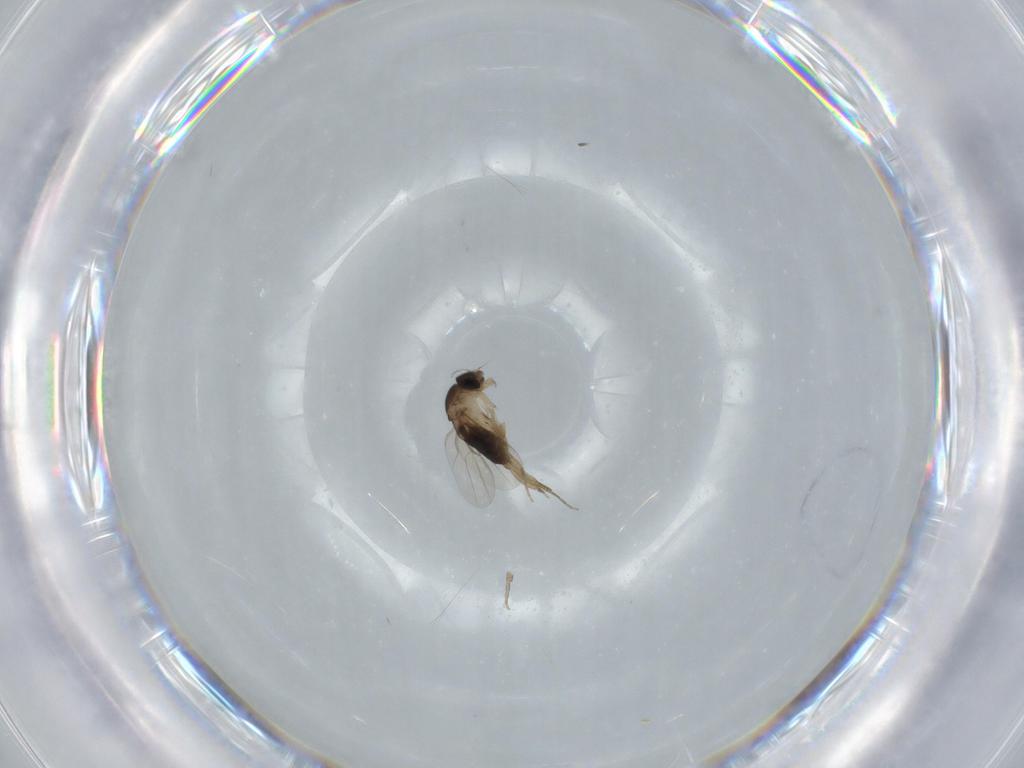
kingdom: Animalia
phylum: Arthropoda
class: Insecta
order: Diptera
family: Phoridae
